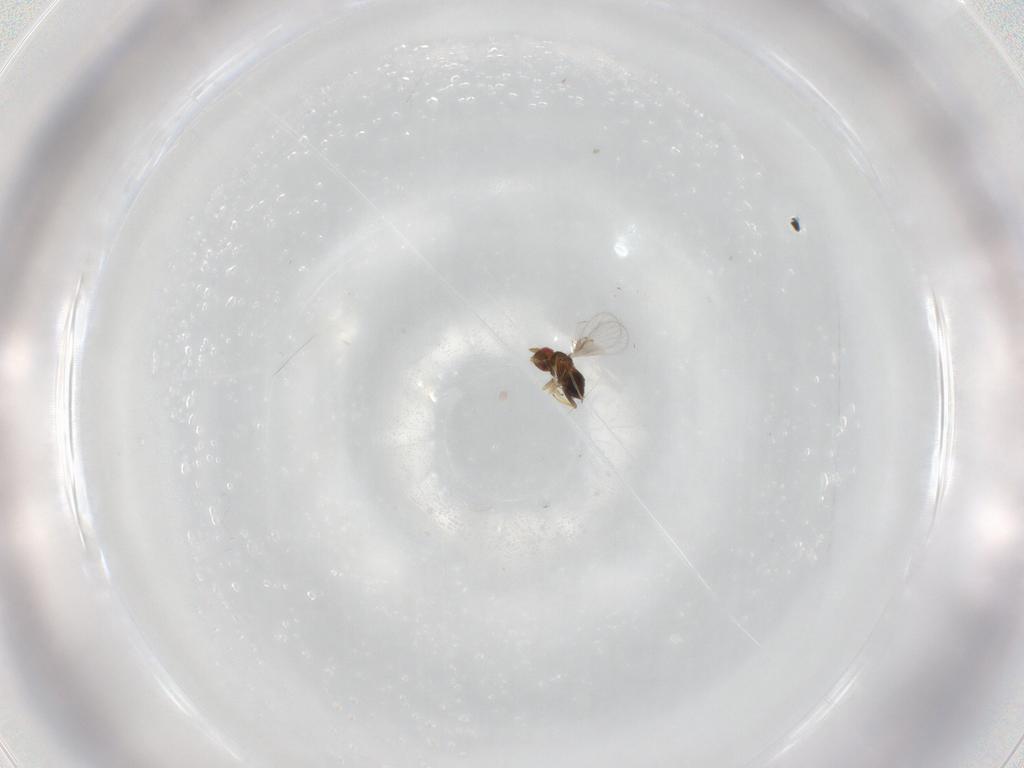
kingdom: Animalia
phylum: Arthropoda
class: Insecta
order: Hymenoptera
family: Trichogrammatidae
